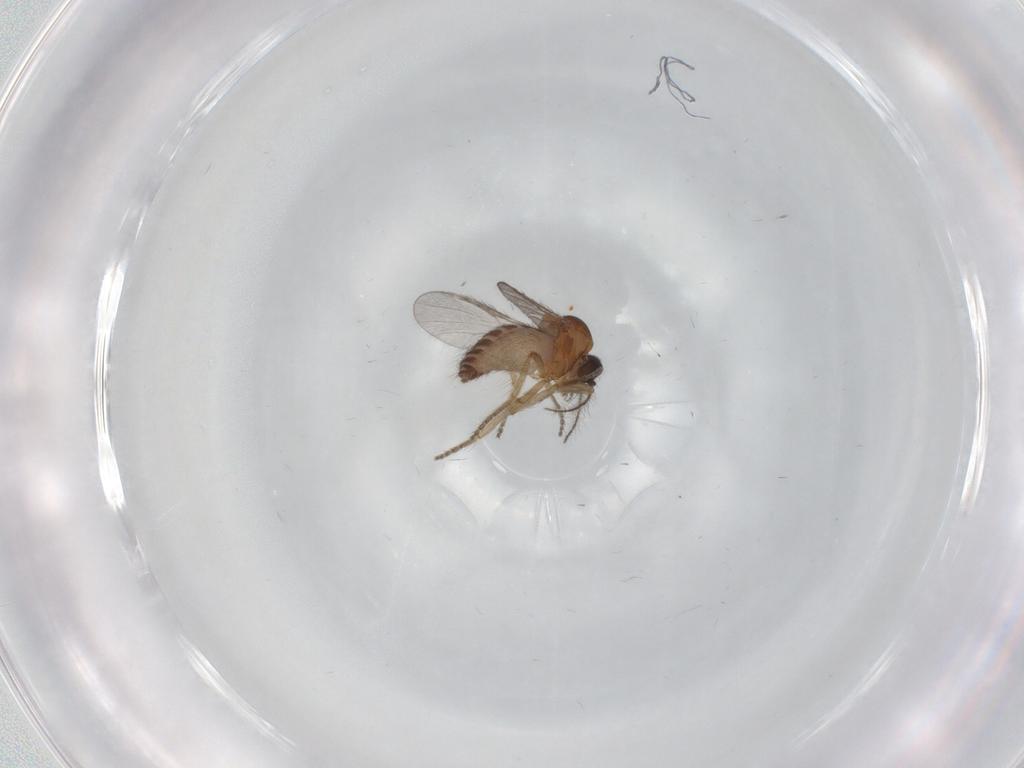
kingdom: Animalia
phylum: Arthropoda
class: Insecta
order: Diptera
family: Ceratopogonidae
